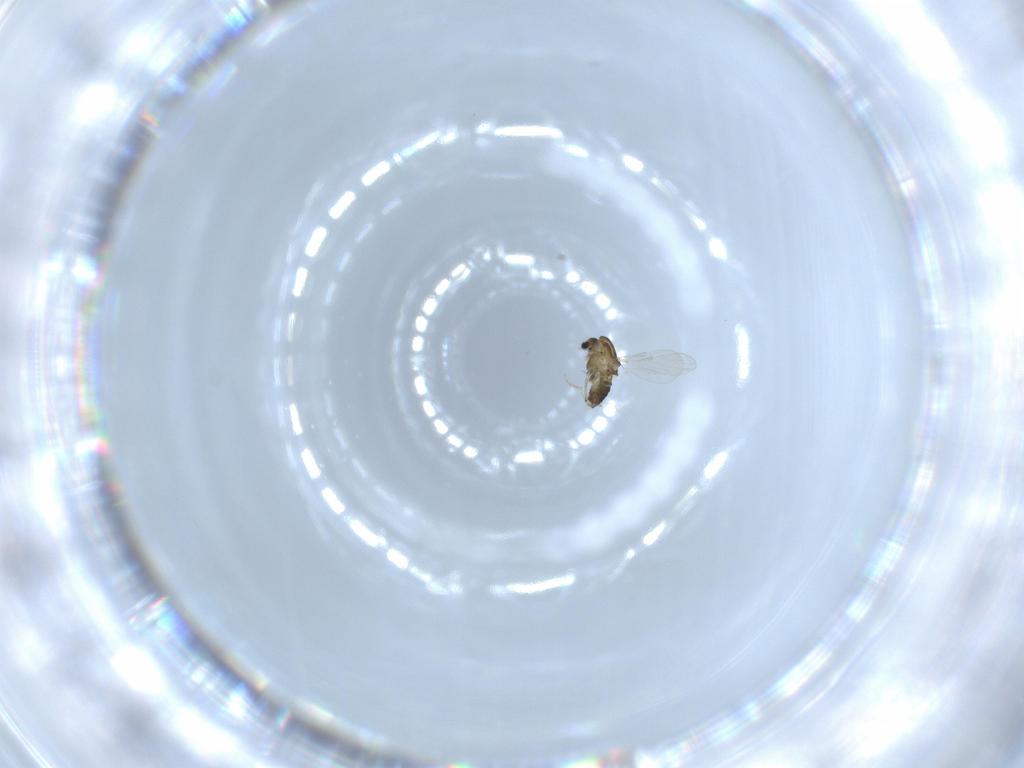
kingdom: Animalia
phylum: Arthropoda
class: Insecta
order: Diptera
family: Chironomidae
